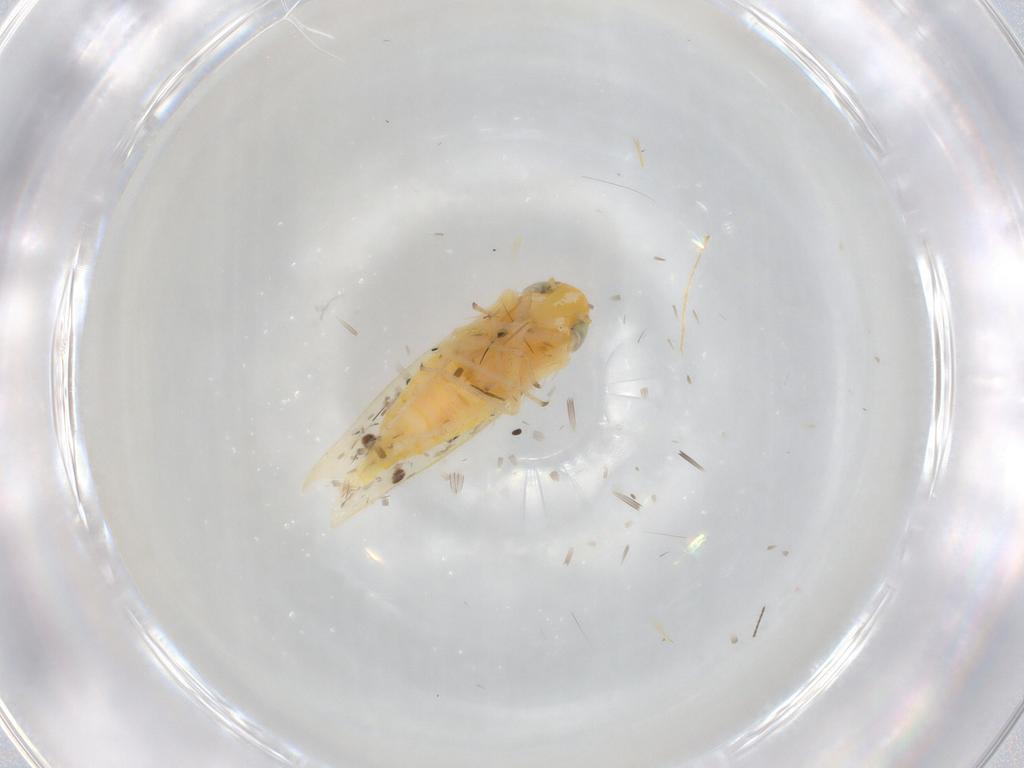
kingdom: Animalia
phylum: Arthropoda
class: Insecta
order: Hemiptera
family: Cicadellidae
